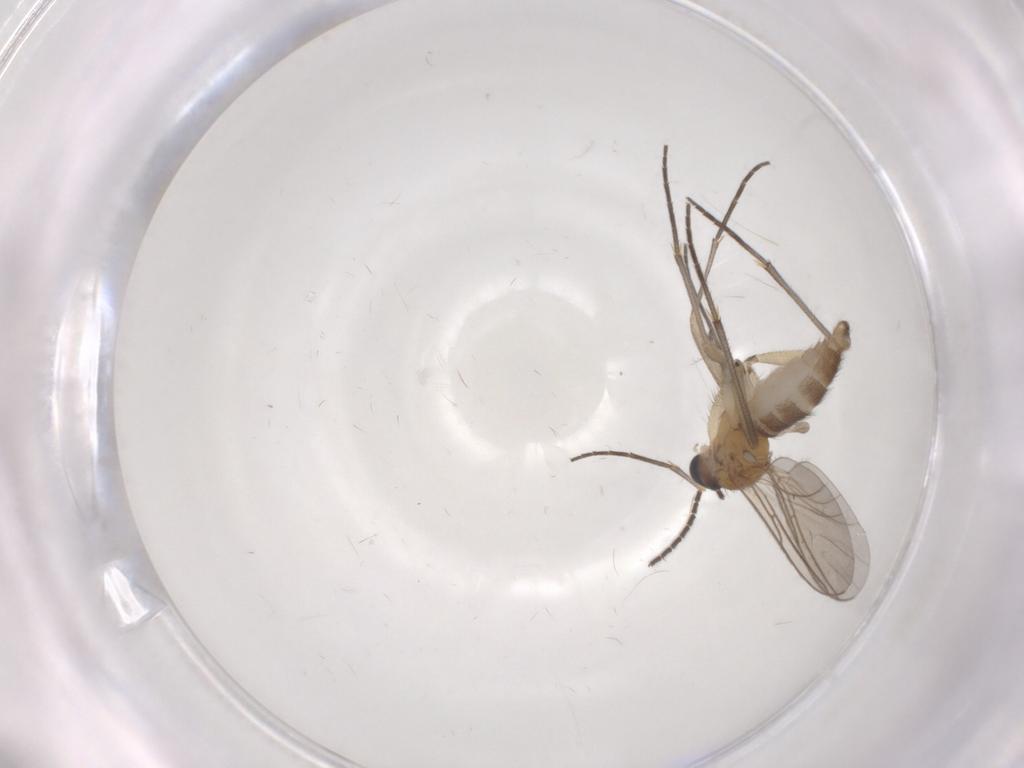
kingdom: Animalia
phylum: Arthropoda
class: Insecta
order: Diptera
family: Sciaridae
